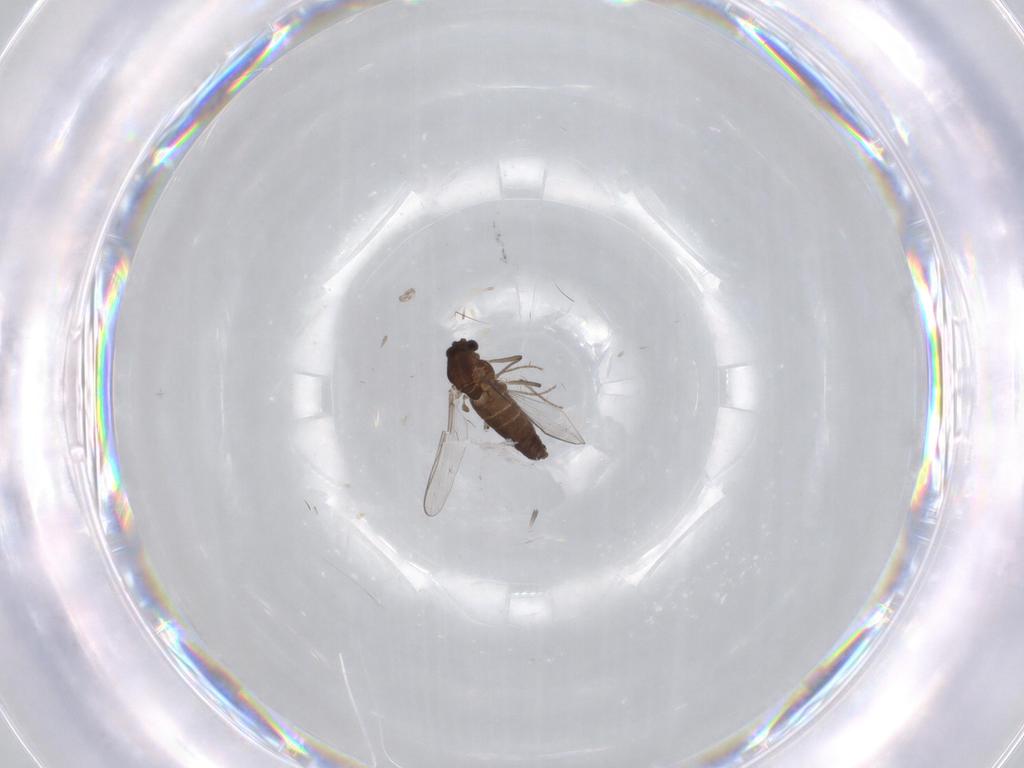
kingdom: Animalia
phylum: Arthropoda
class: Insecta
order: Diptera
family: Chironomidae
